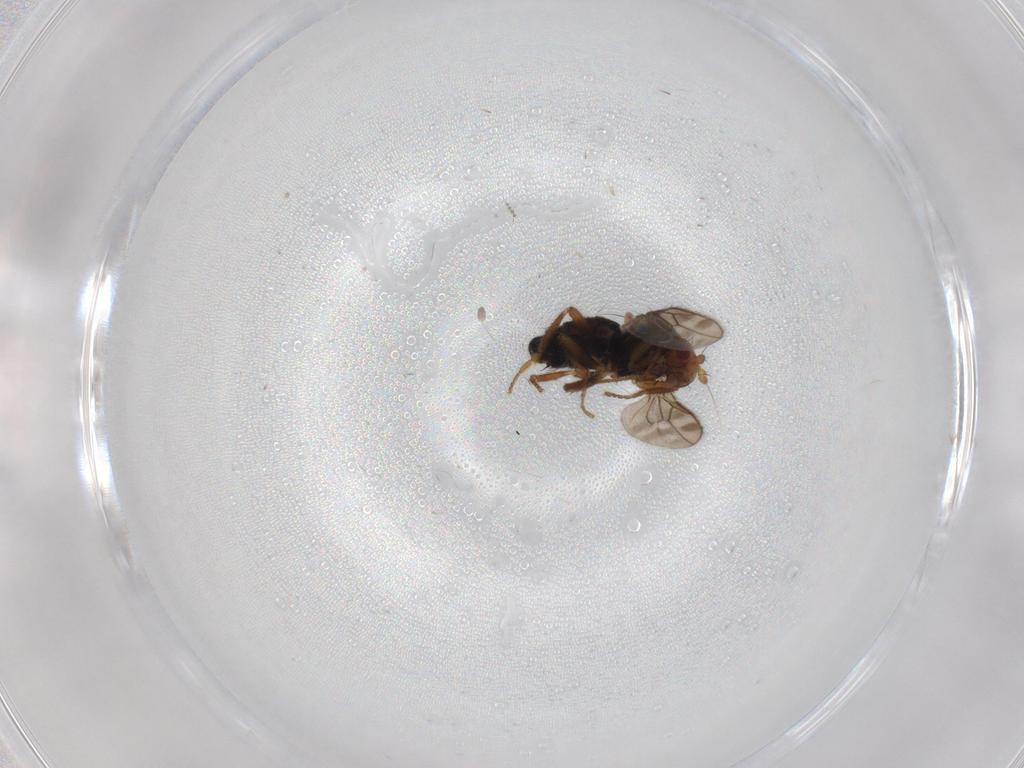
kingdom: Animalia
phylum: Arthropoda
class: Insecta
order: Diptera
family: Sphaeroceridae
